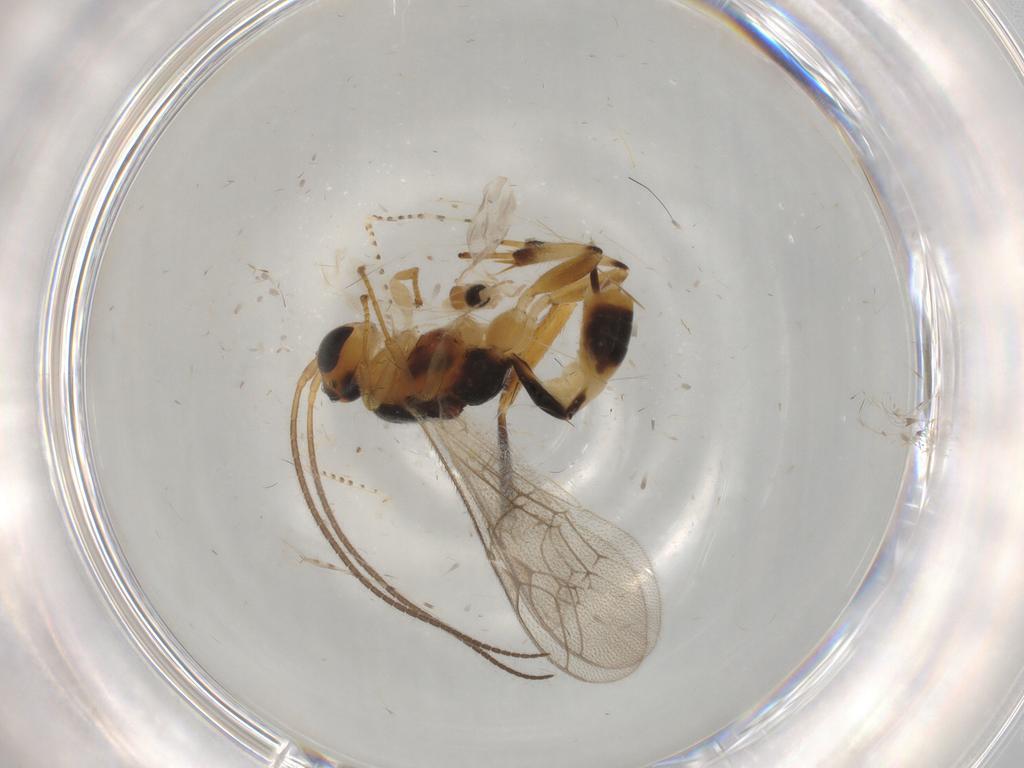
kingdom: Animalia
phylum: Arthropoda
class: Insecta
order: Hymenoptera
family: Ichneumonidae
